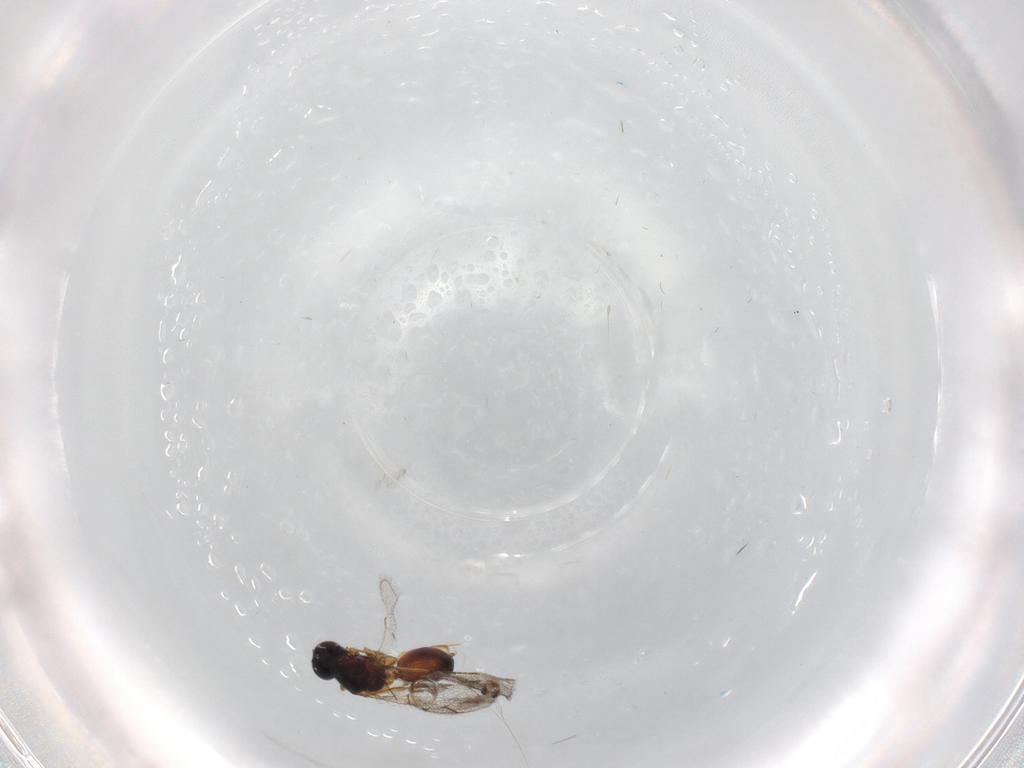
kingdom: Animalia
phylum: Arthropoda
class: Insecta
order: Hymenoptera
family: Figitidae
